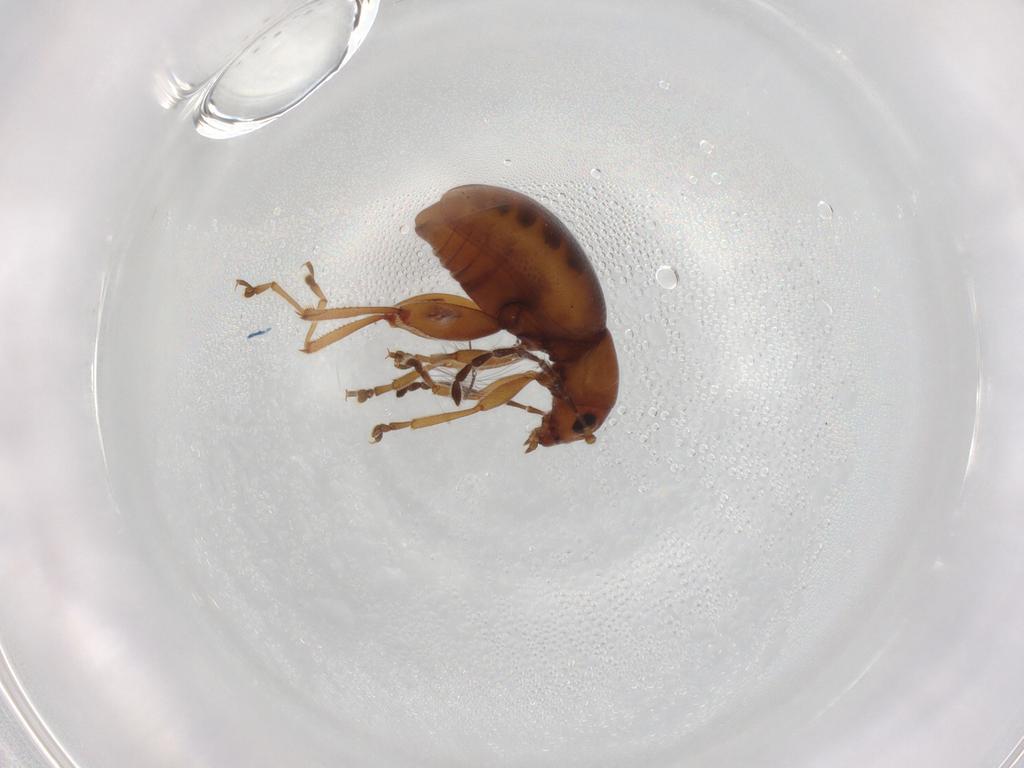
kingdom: Animalia
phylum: Arthropoda
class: Insecta
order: Coleoptera
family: Chrysomelidae
